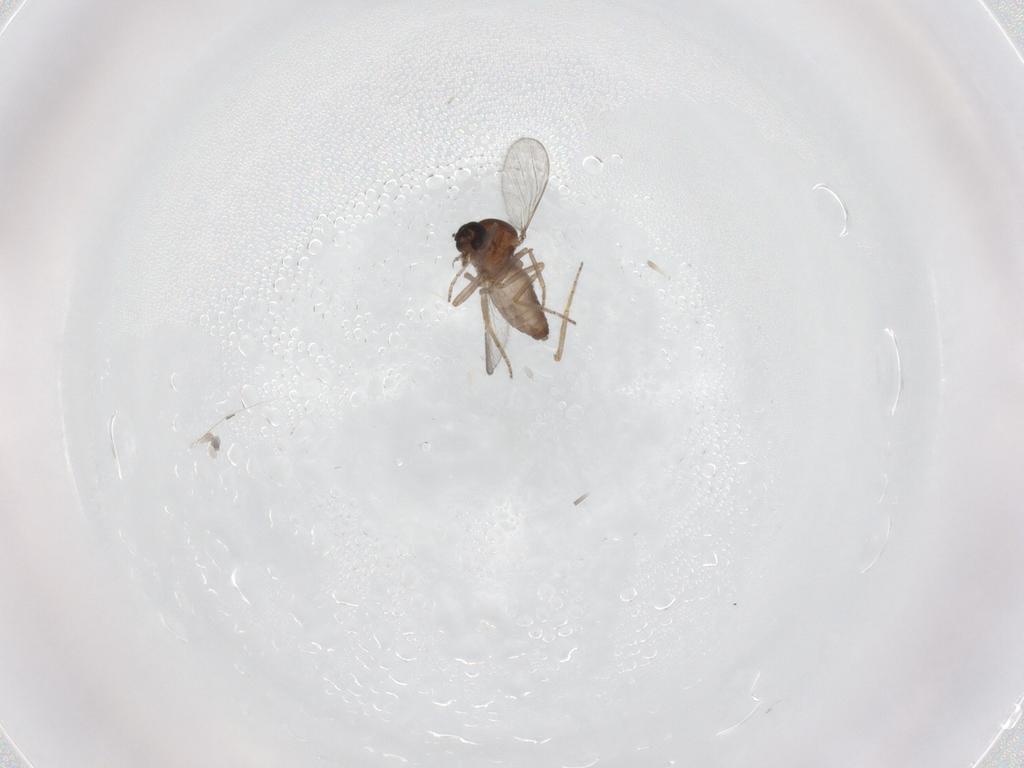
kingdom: Animalia
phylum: Arthropoda
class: Insecta
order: Diptera
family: Ceratopogonidae
